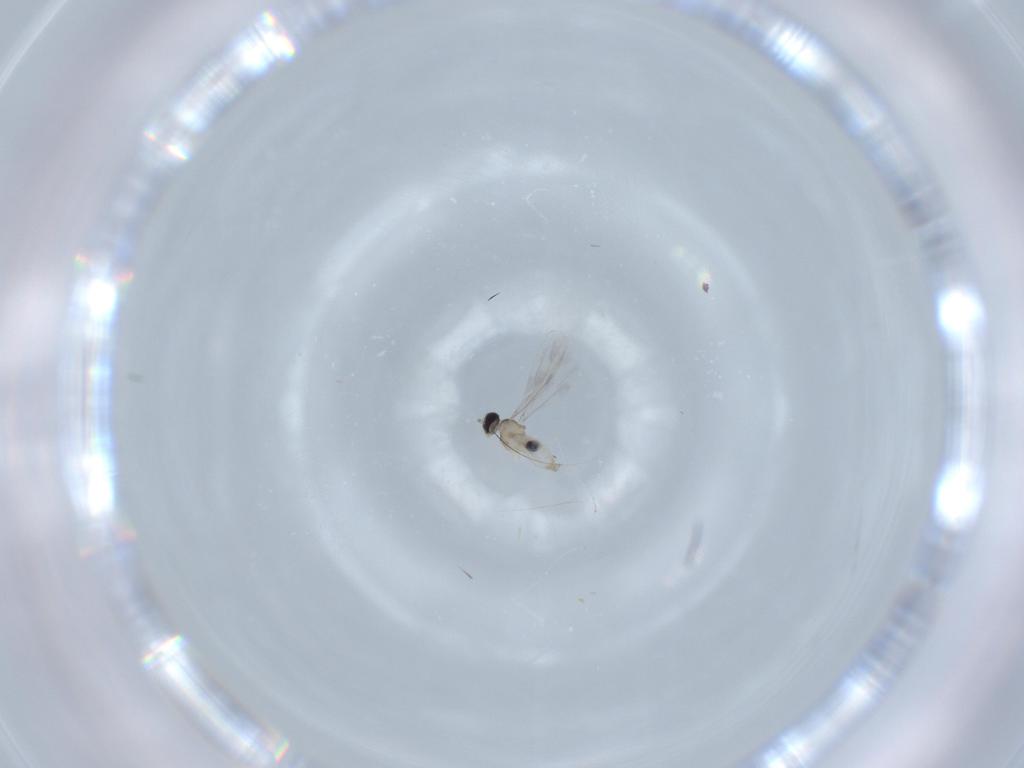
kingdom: Animalia
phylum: Arthropoda
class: Insecta
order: Diptera
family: Cecidomyiidae
